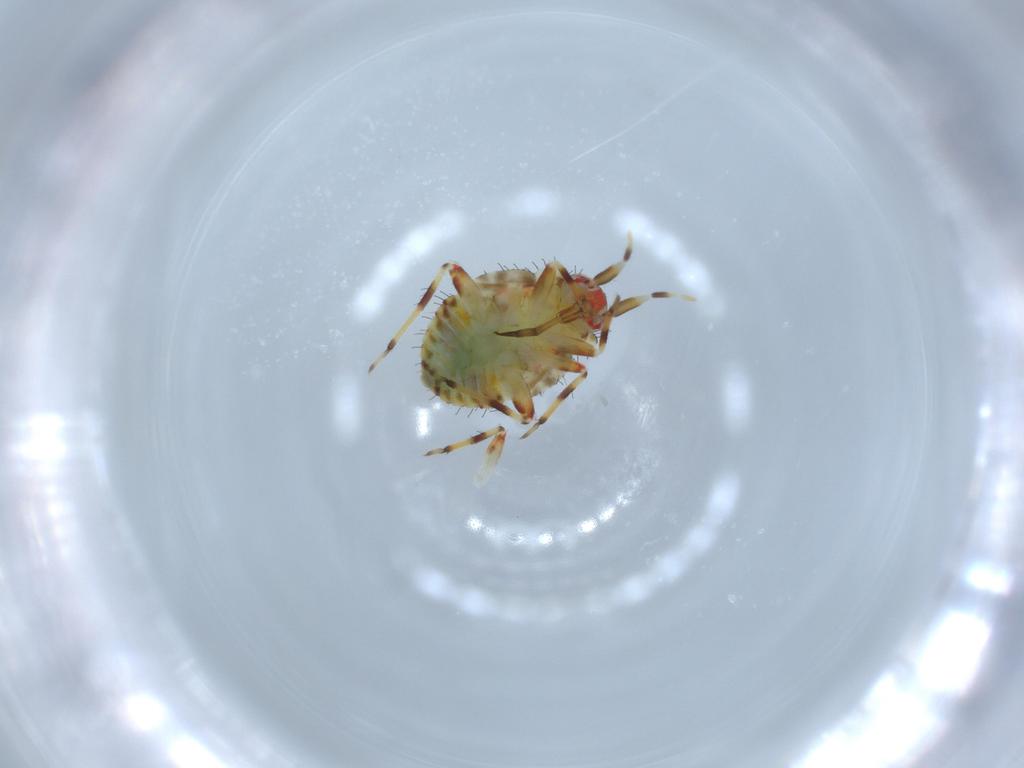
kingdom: Animalia
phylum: Arthropoda
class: Insecta
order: Hemiptera
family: Miridae
